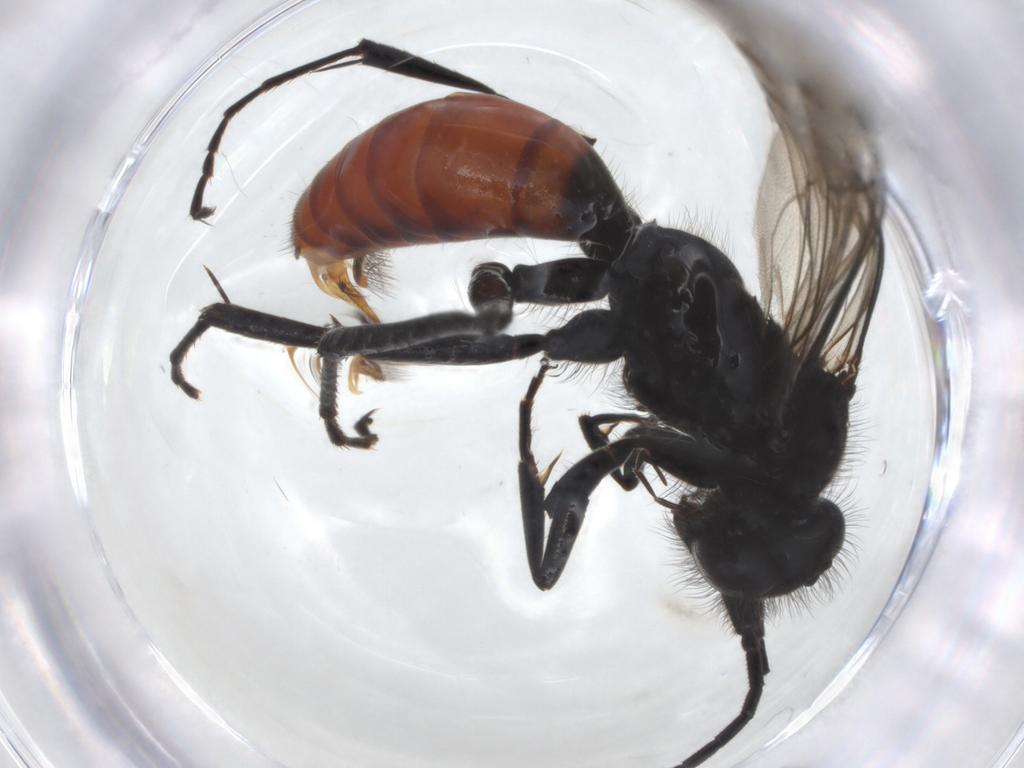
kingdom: Animalia
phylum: Arthropoda
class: Insecta
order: Hymenoptera
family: Pompilidae
